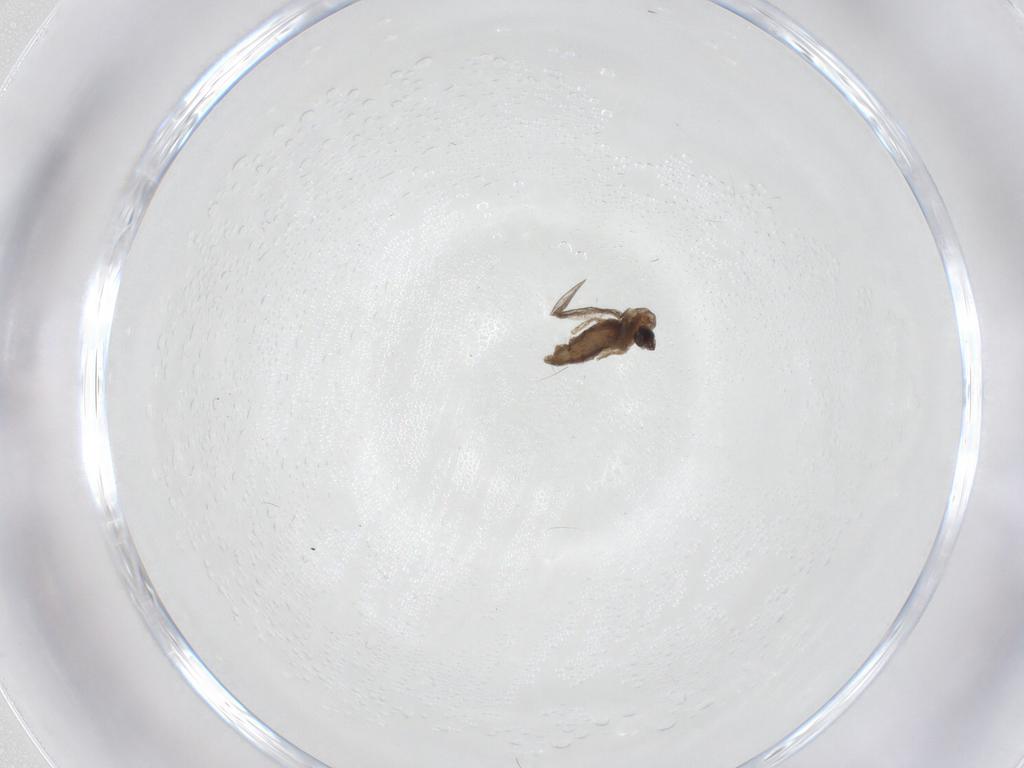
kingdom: Animalia
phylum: Arthropoda
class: Insecta
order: Diptera
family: Cecidomyiidae
